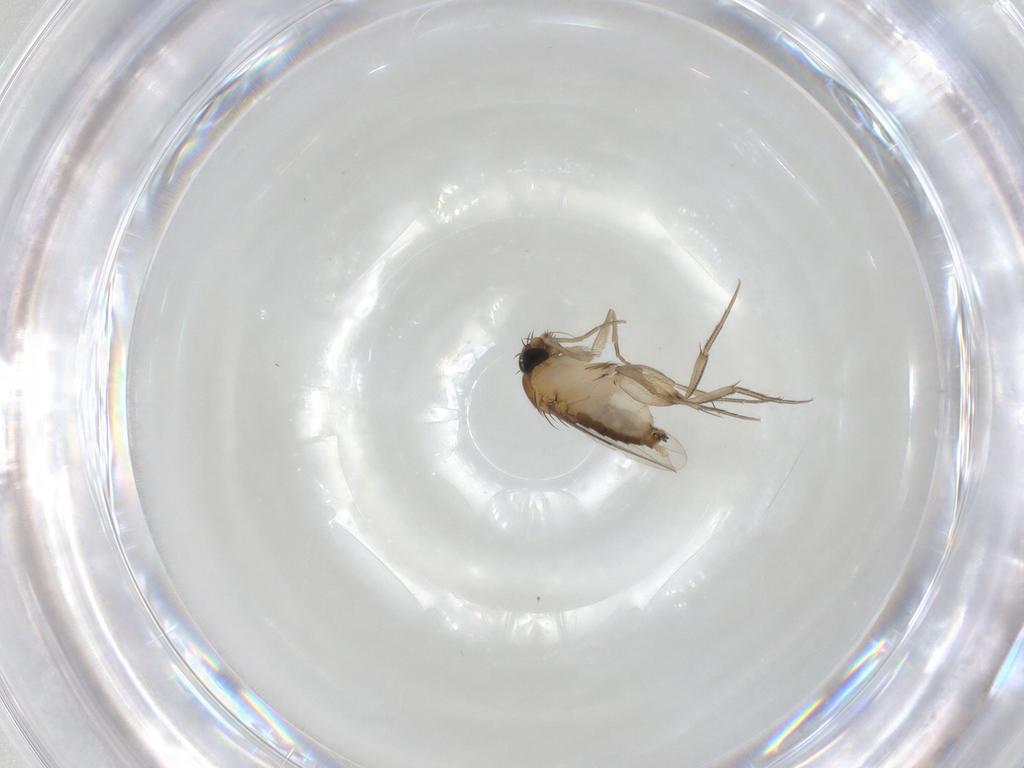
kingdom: Animalia
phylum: Arthropoda
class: Insecta
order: Diptera
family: Phoridae
